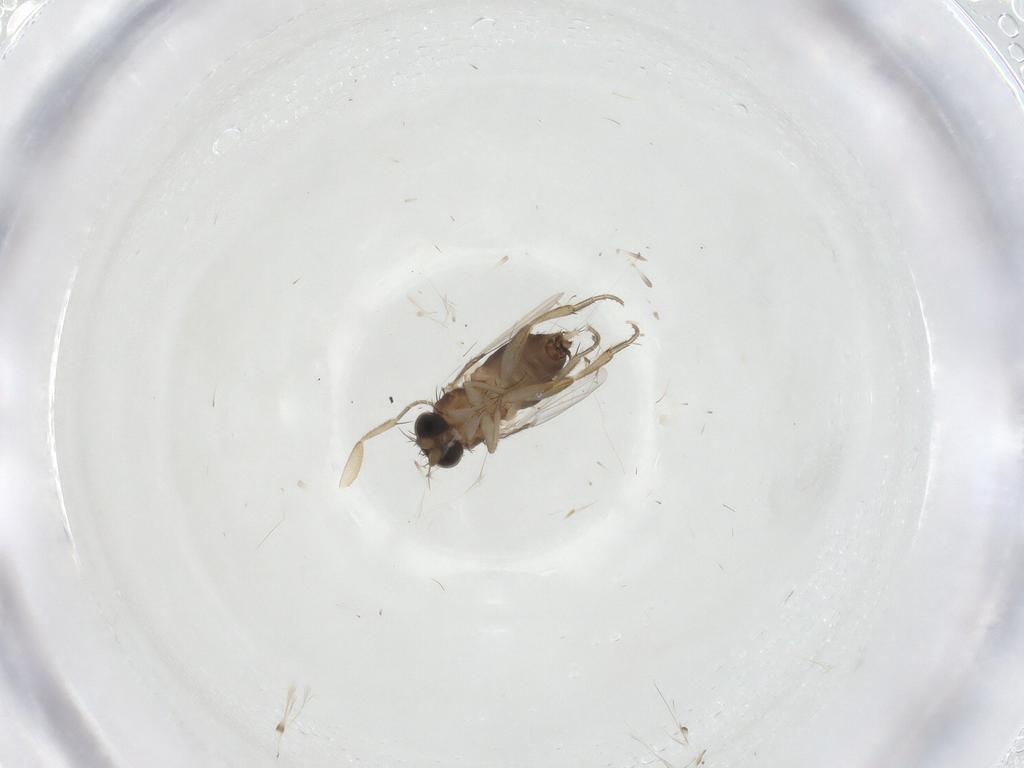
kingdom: Animalia
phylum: Arthropoda
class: Insecta
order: Diptera
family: Phoridae
